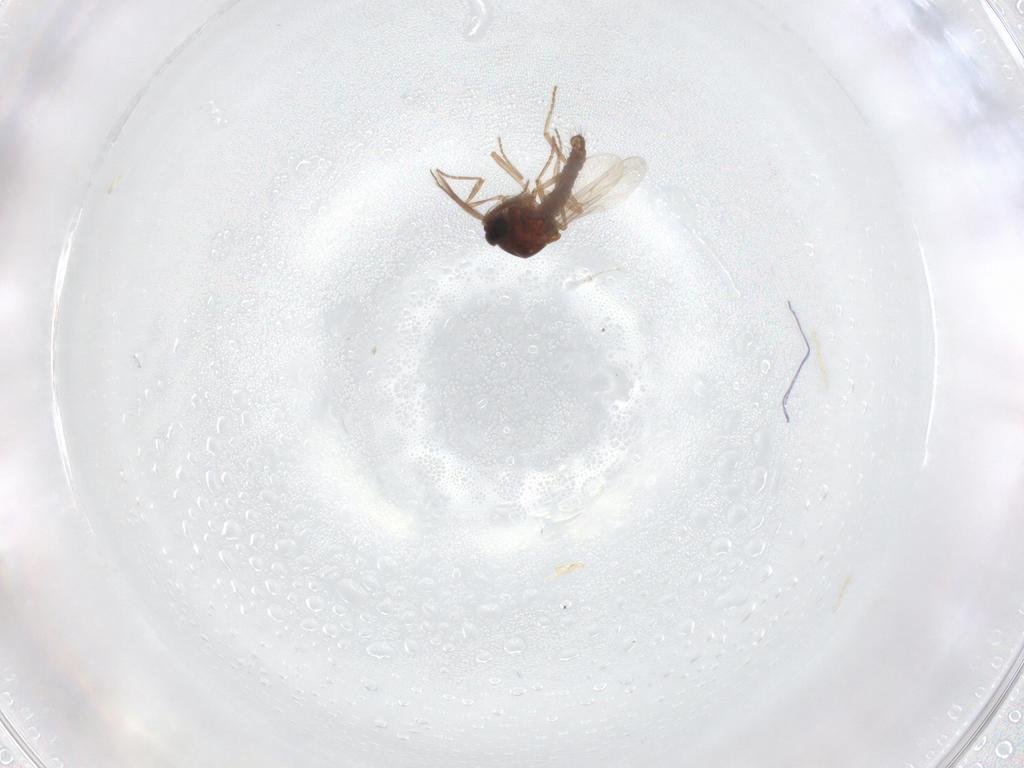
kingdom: Animalia
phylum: Arthropoda
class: Insecta
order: Diptera
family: Ceratopogonidae
